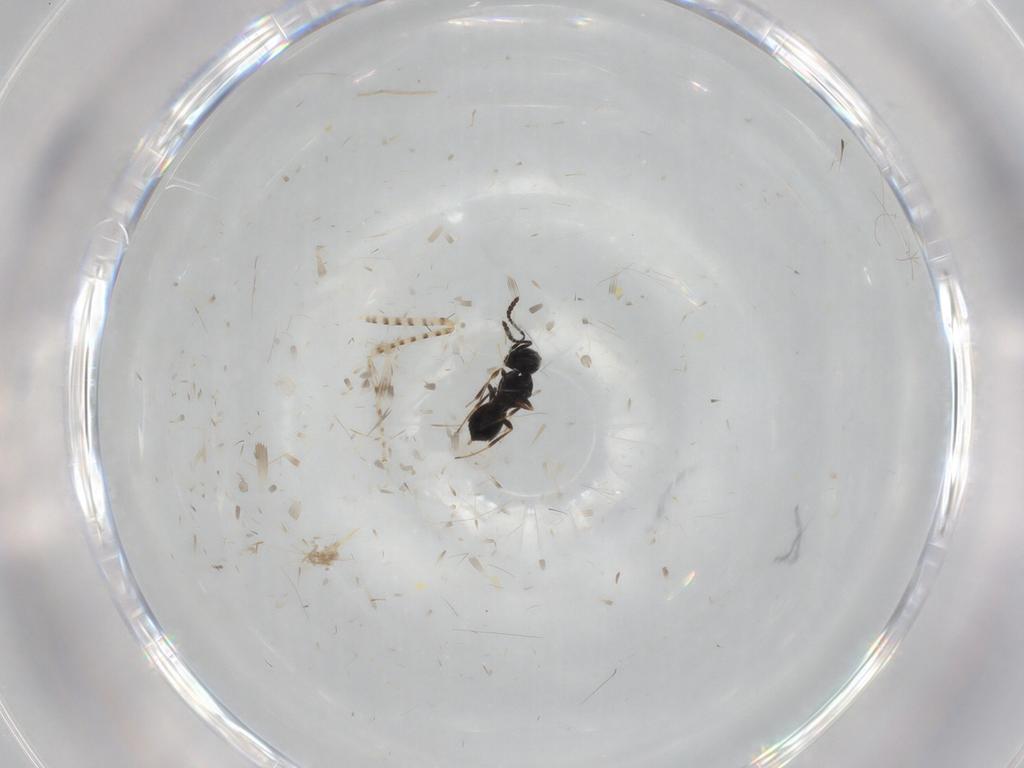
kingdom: Animalia
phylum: Arthropoda
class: Insecta
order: Hymenoptera
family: Scelionidae
